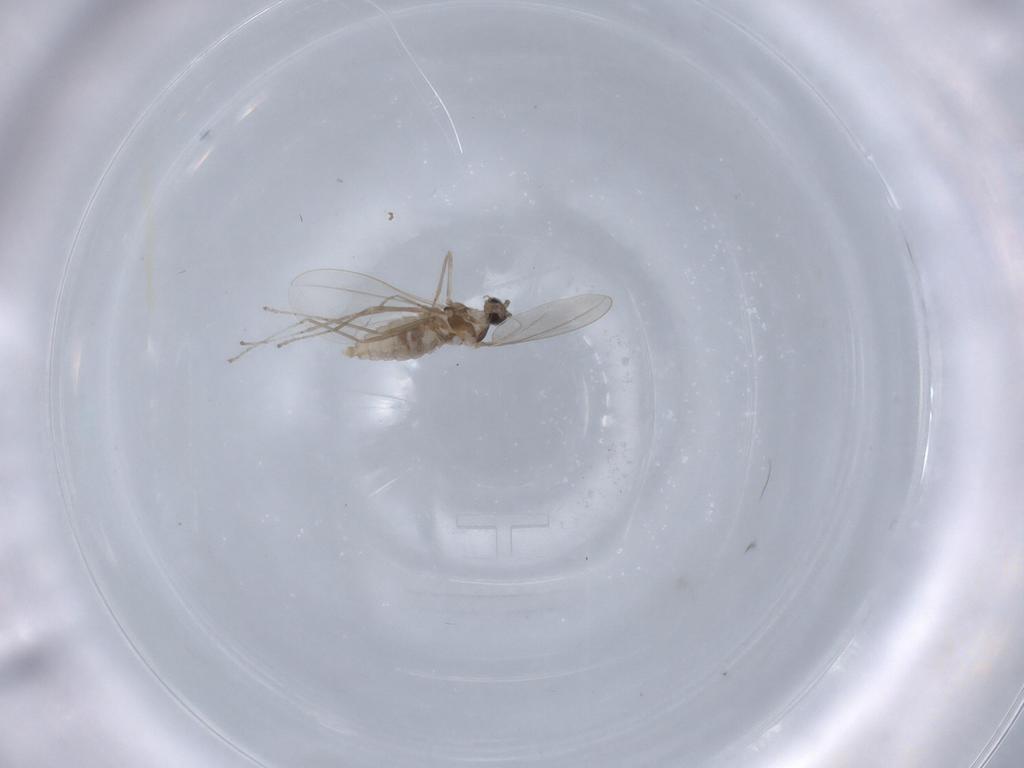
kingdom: Animalia
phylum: Arthropoda
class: Insecta
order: Diptera
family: Cecidomyiidae
